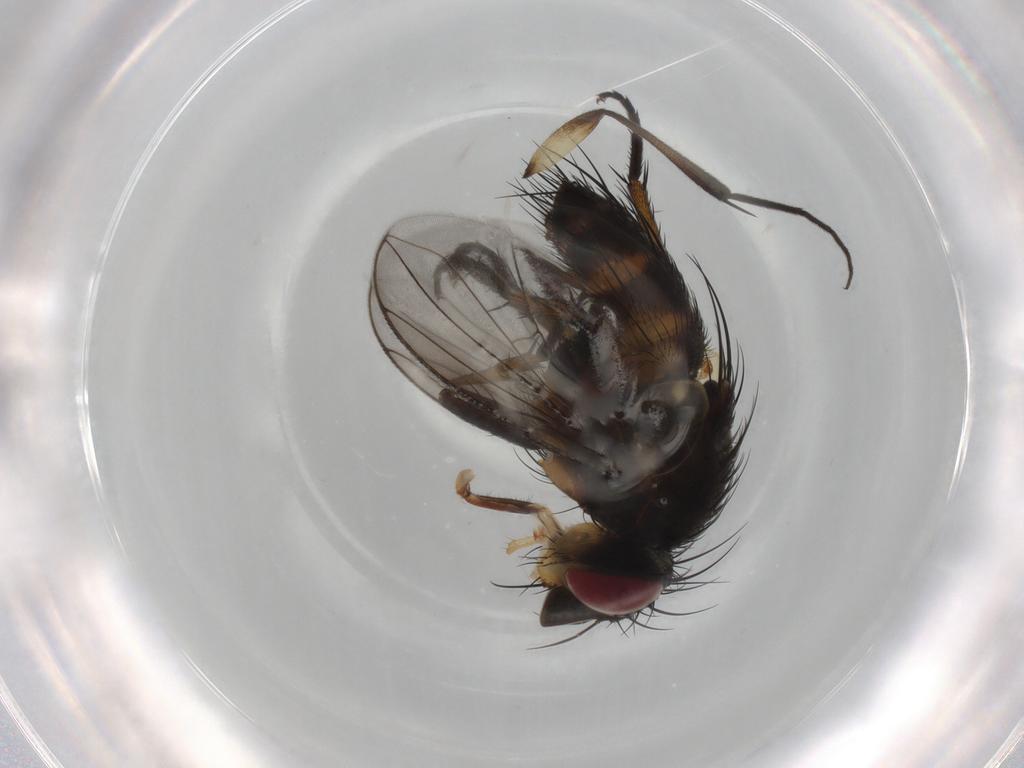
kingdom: Animalia
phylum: Arthropoda
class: Insecta
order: Diptera
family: Tachinidae
